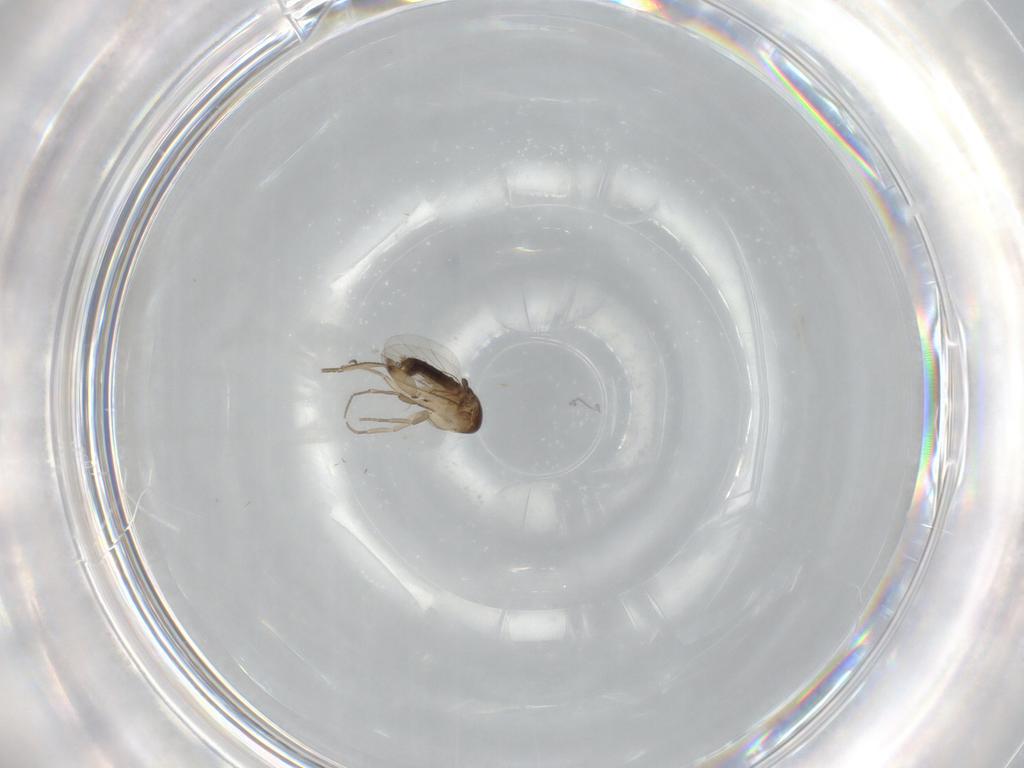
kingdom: Animalia
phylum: Arthropoda
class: Insecta
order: Diptera
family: Phoridae
